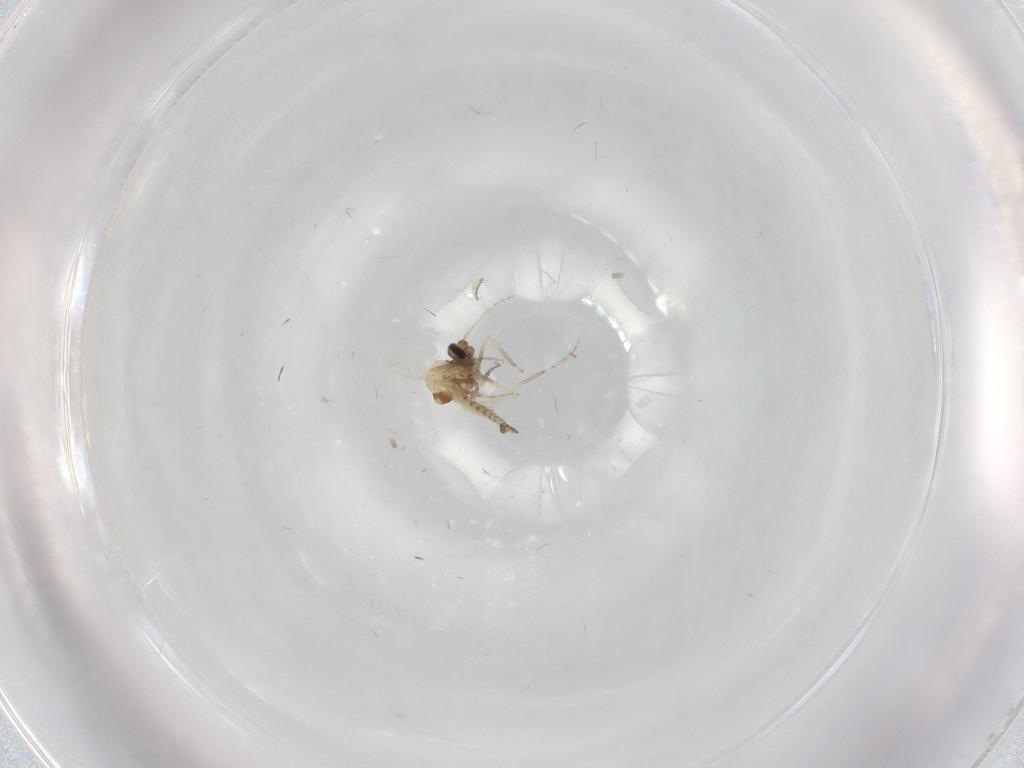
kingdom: Animalia
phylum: Arthropoda
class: Insecta
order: Diptera
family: Ceratopogonidae
